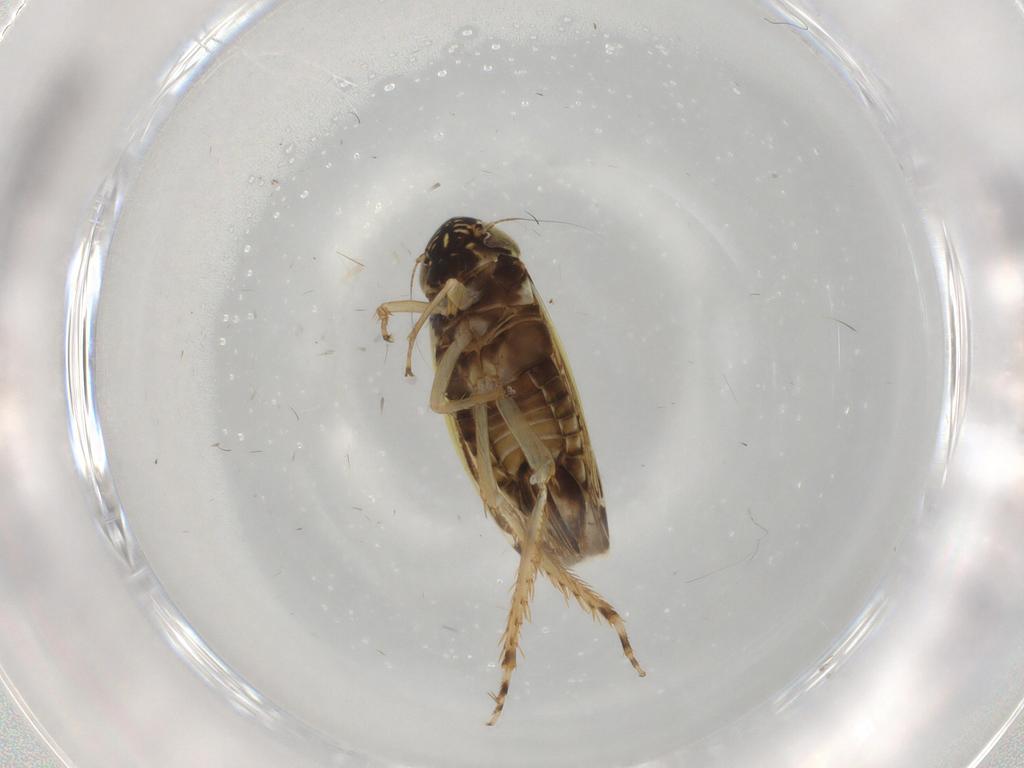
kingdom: Animalia
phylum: Arthropoda
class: Insecta
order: Hemiptera
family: Cicadellidae
